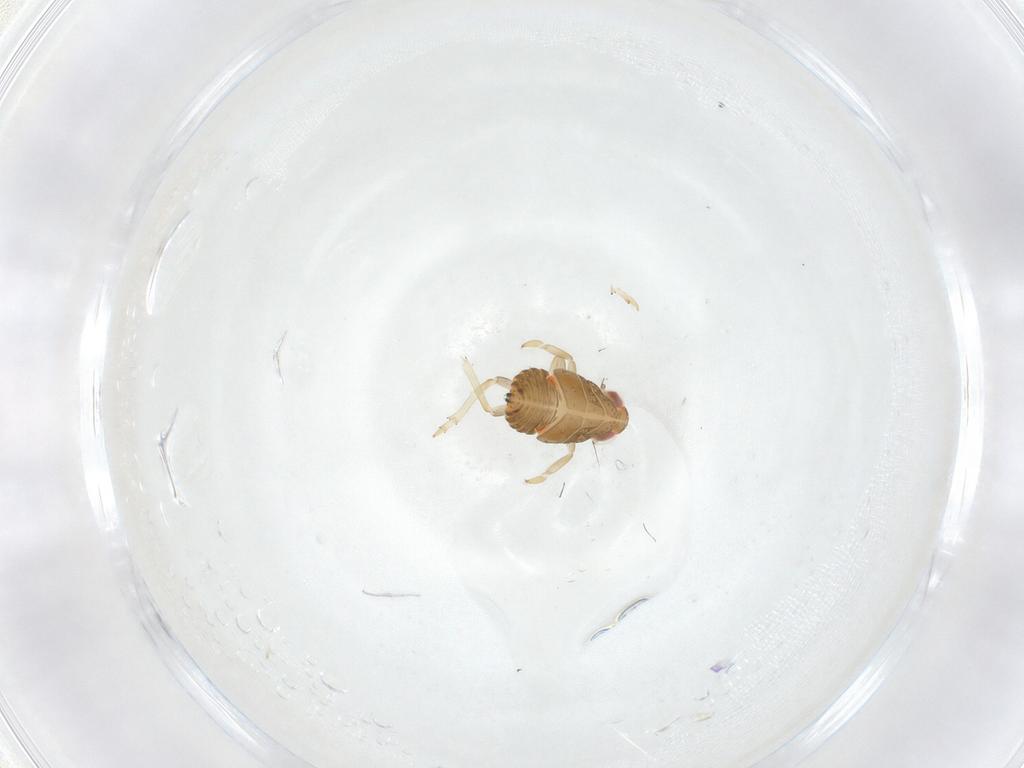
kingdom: Animalia
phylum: Arthropoda
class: Insecta
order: Hemiptera
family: Issidae
